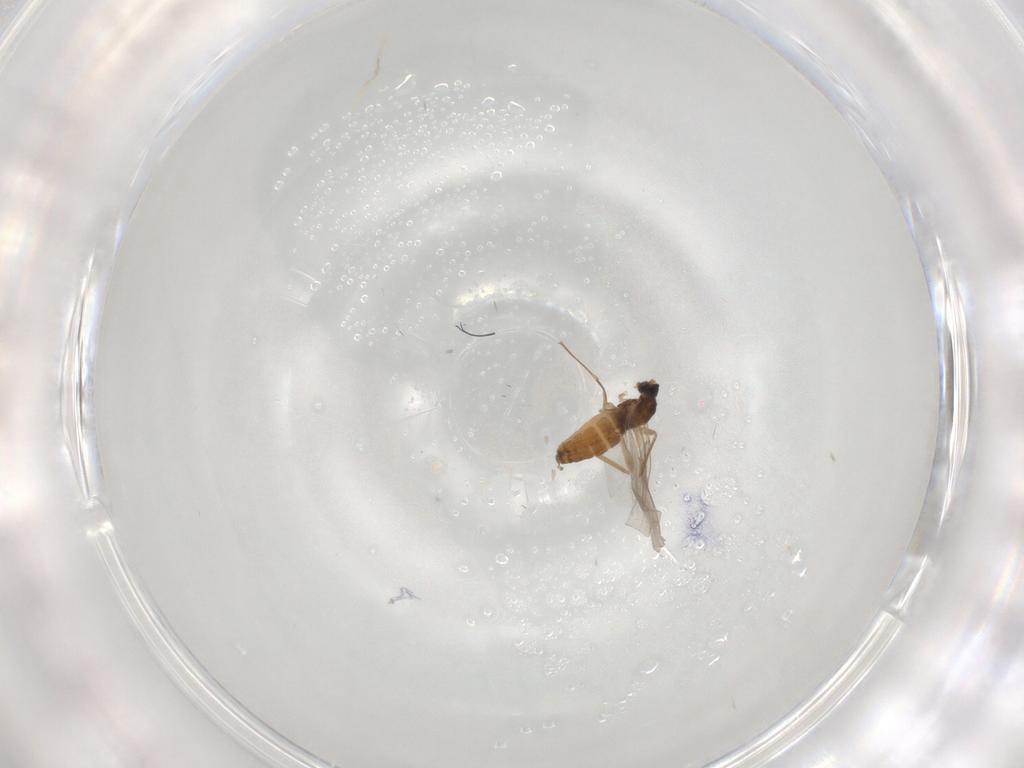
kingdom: Animalia
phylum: Arthropoda
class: Insecta
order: Diptera
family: Cecidomyiidae
